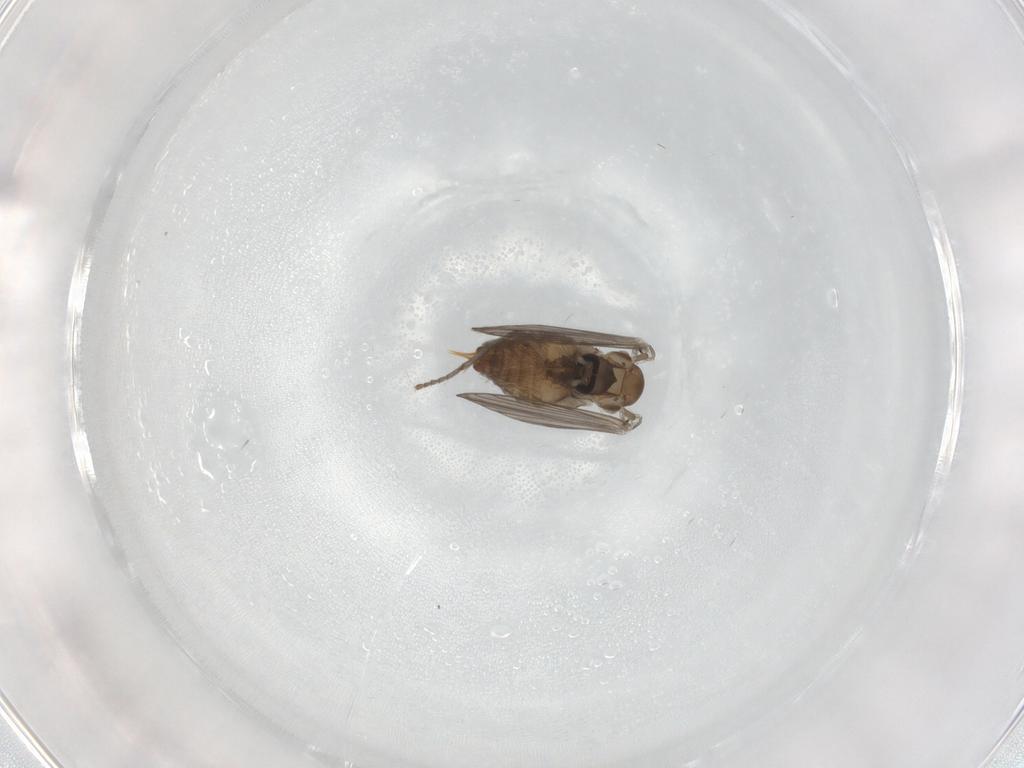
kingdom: Animalia
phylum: Arthropoda
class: Insecta
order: Diptera
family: Psychodidae
